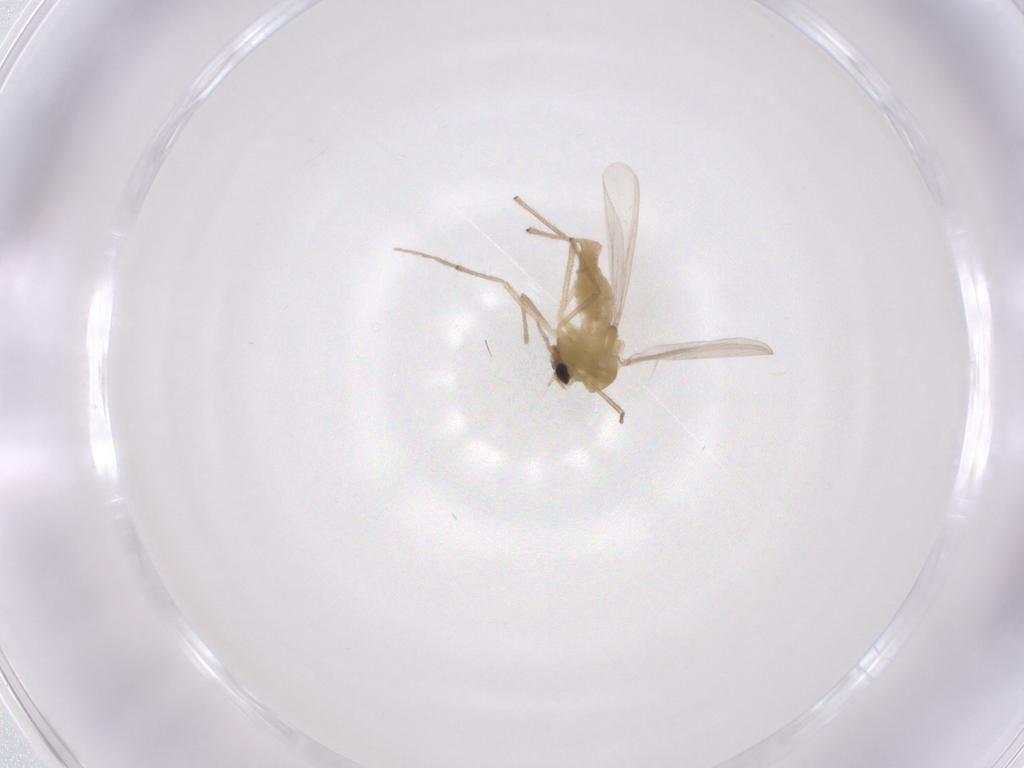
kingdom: Animalia
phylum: Arthropoda
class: Insecta
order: Diptera
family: Chironomidae
